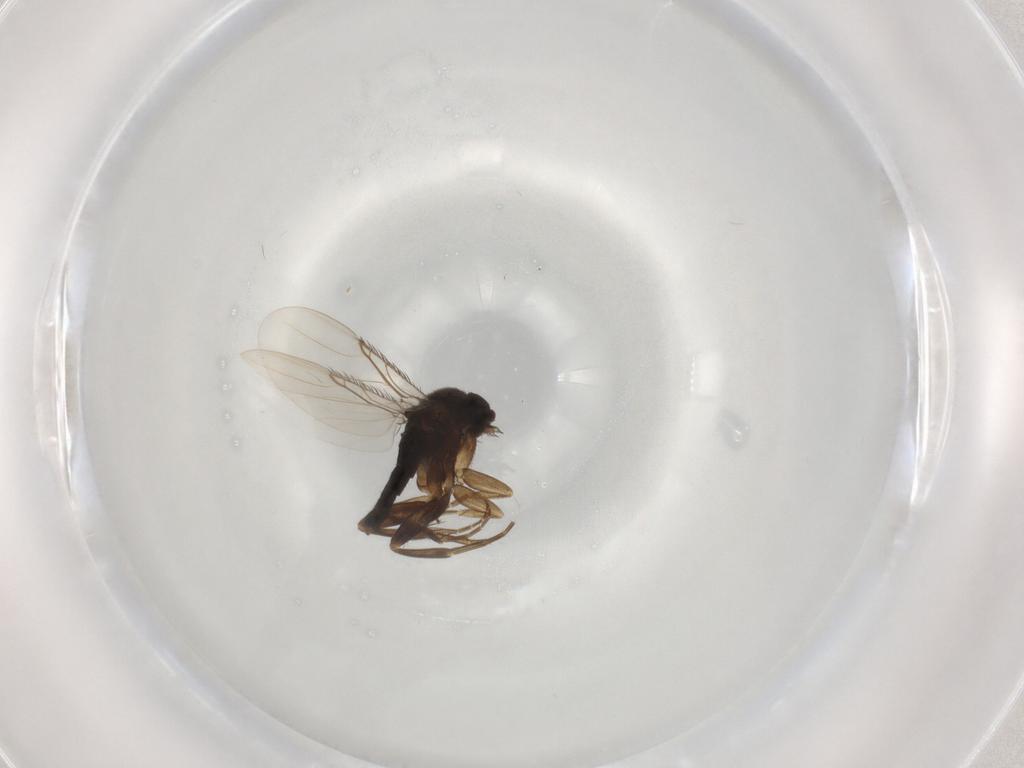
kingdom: Animalia
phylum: Arthropoda
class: Insecta
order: Diptera
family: Phoridae
